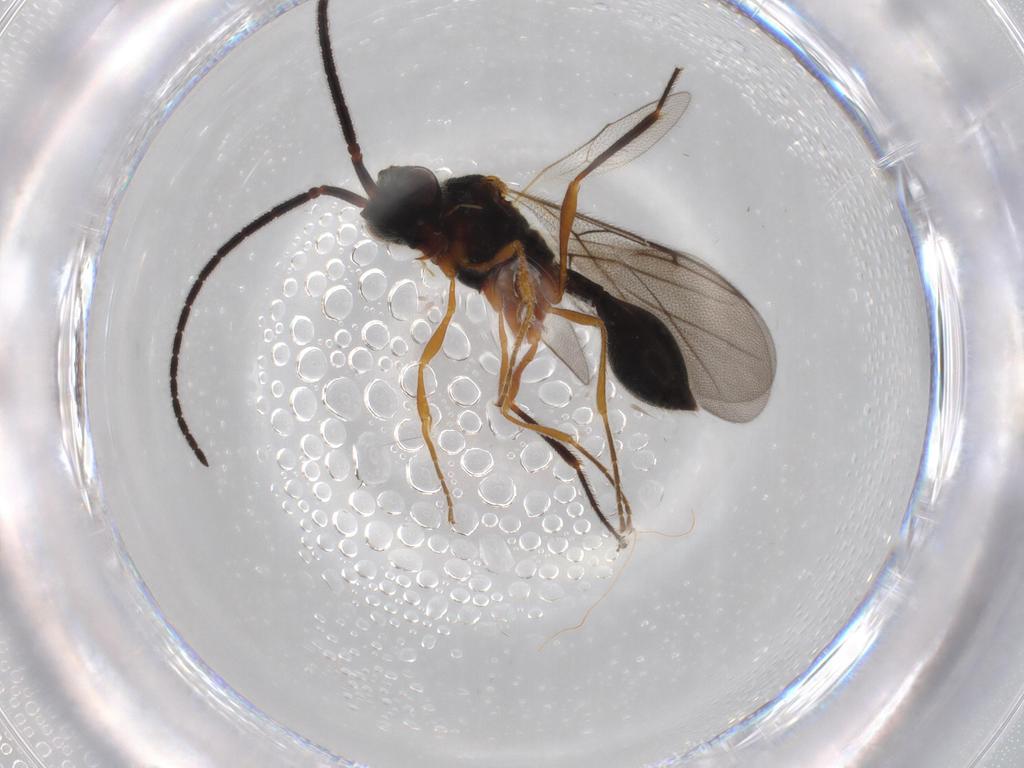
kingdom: Animalia
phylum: Arthropoda
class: Insecta
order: Hymenoptera
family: Diapriidae
